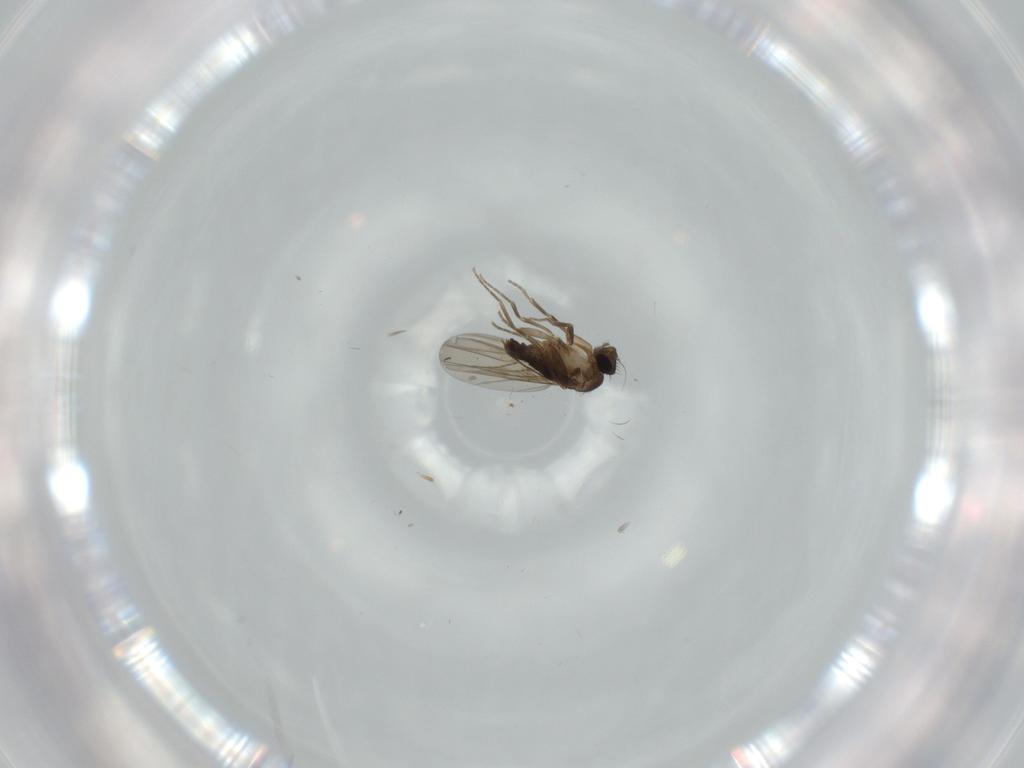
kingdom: Animalia
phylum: Arthropoda
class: Insecta
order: Diptera
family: Phoridae
